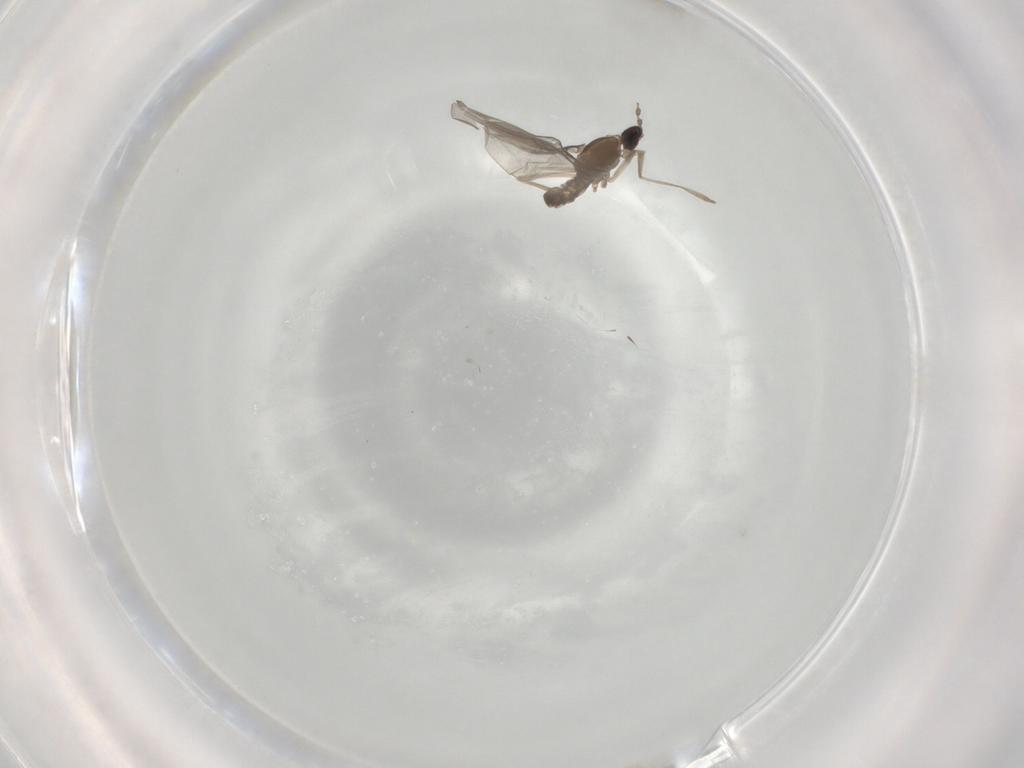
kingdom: Animalia
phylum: Arthropoda
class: Insecta
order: Diptera
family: Cecidomyiidae
